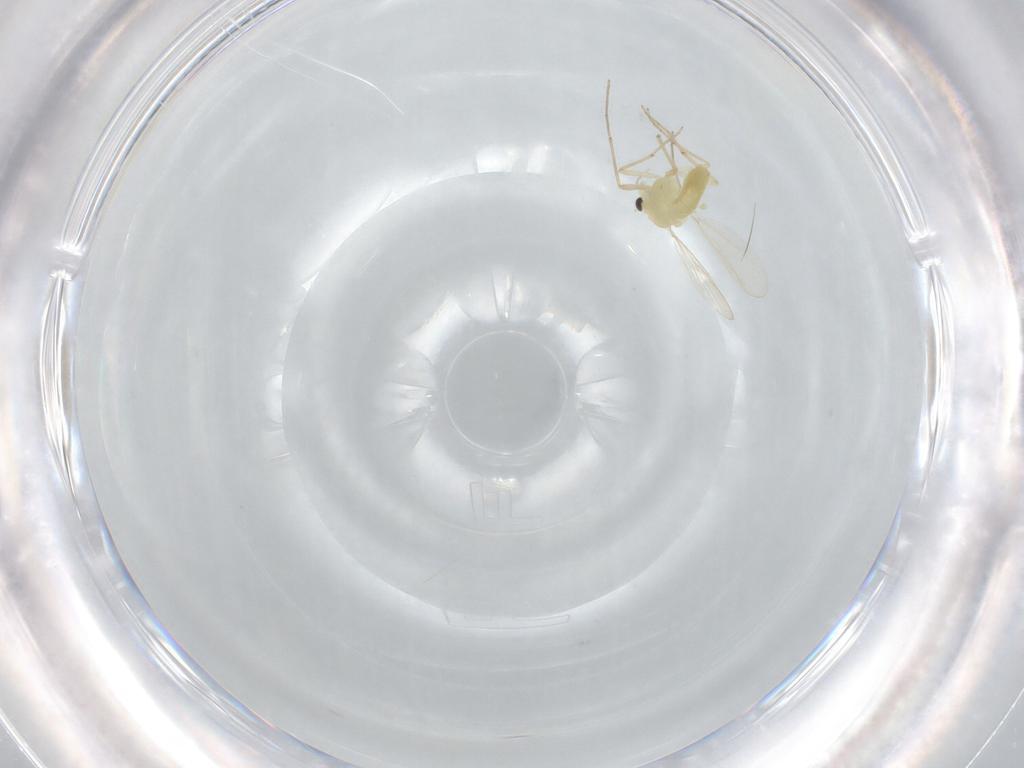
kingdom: Animalia
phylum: Arthropoda
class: Insecta
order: Diptera
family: Chironomidae
